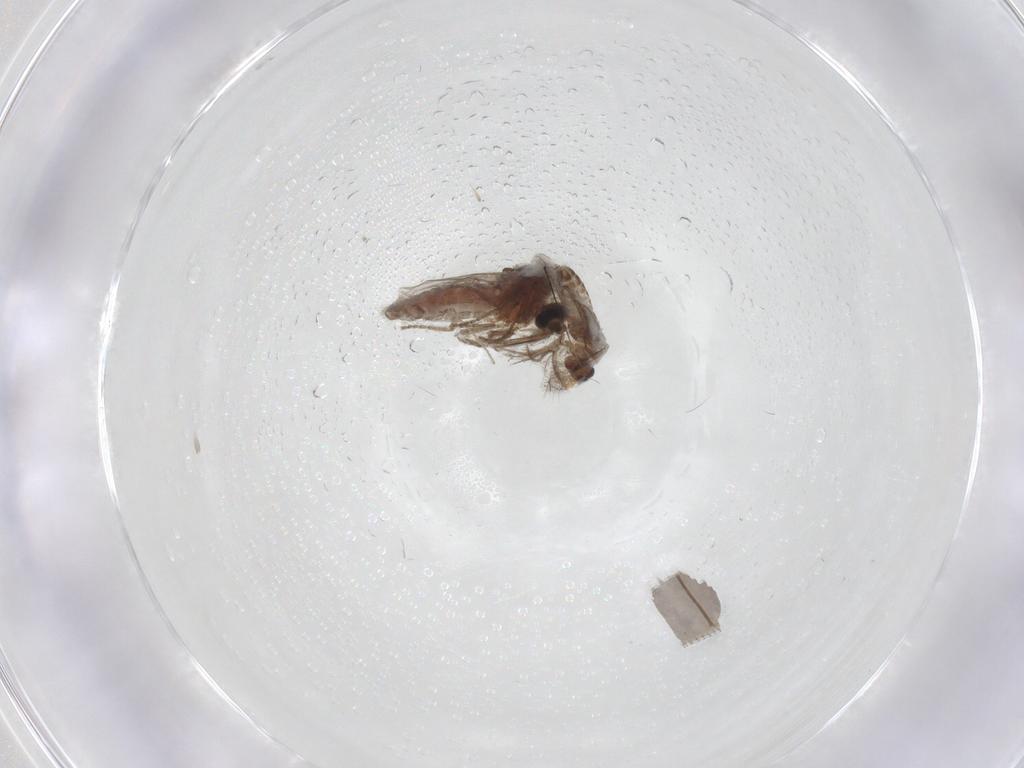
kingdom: Animalia
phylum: Arthropoda
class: Insecta
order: Diptera
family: Ceratopogonidae
